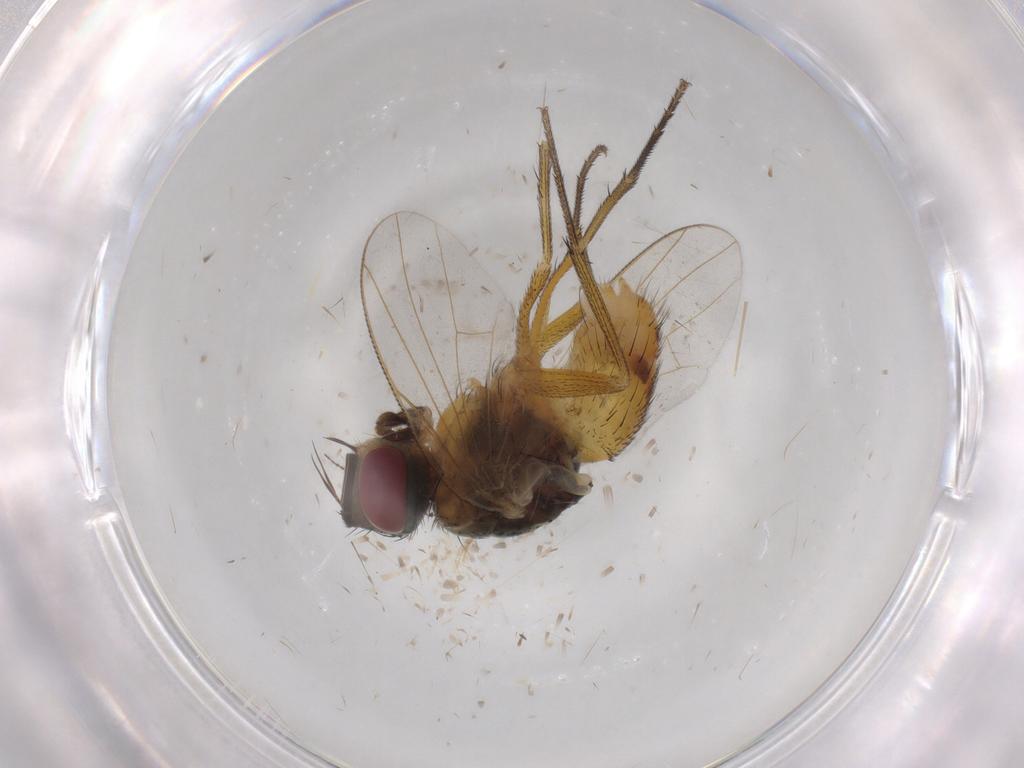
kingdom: Animalia
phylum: Arthropoda
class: Insecta
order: Diptera
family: Muscidae
